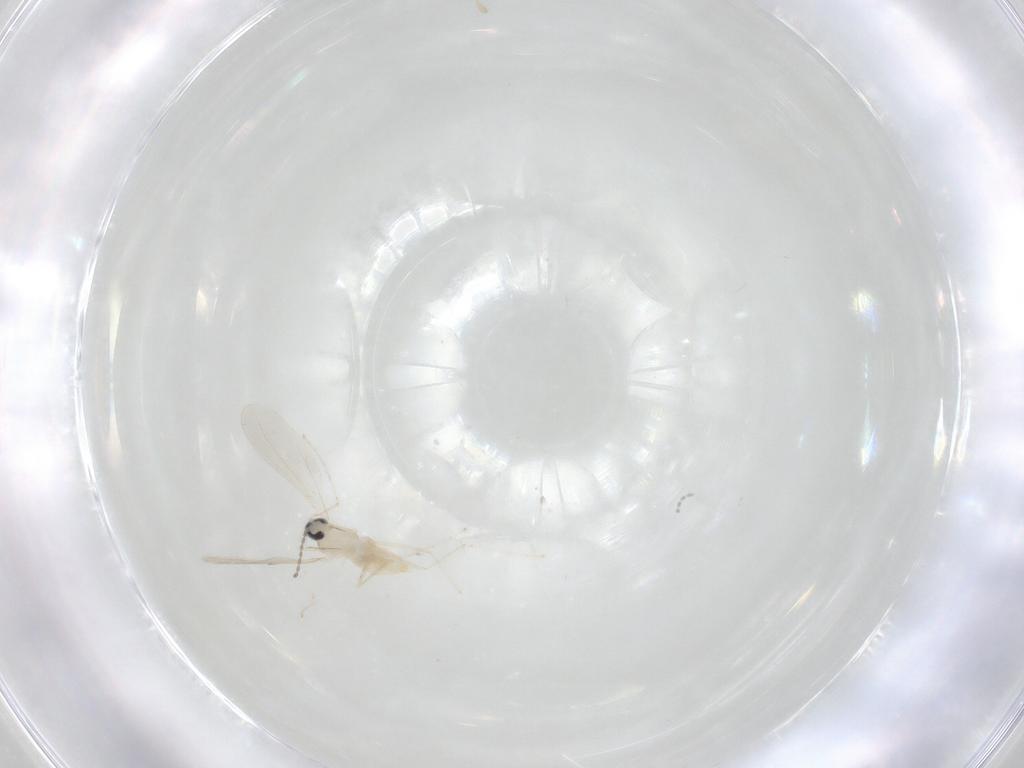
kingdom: Animalia
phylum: Arthropoda
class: Insecta
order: Diptera
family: Cecidomyiidae
